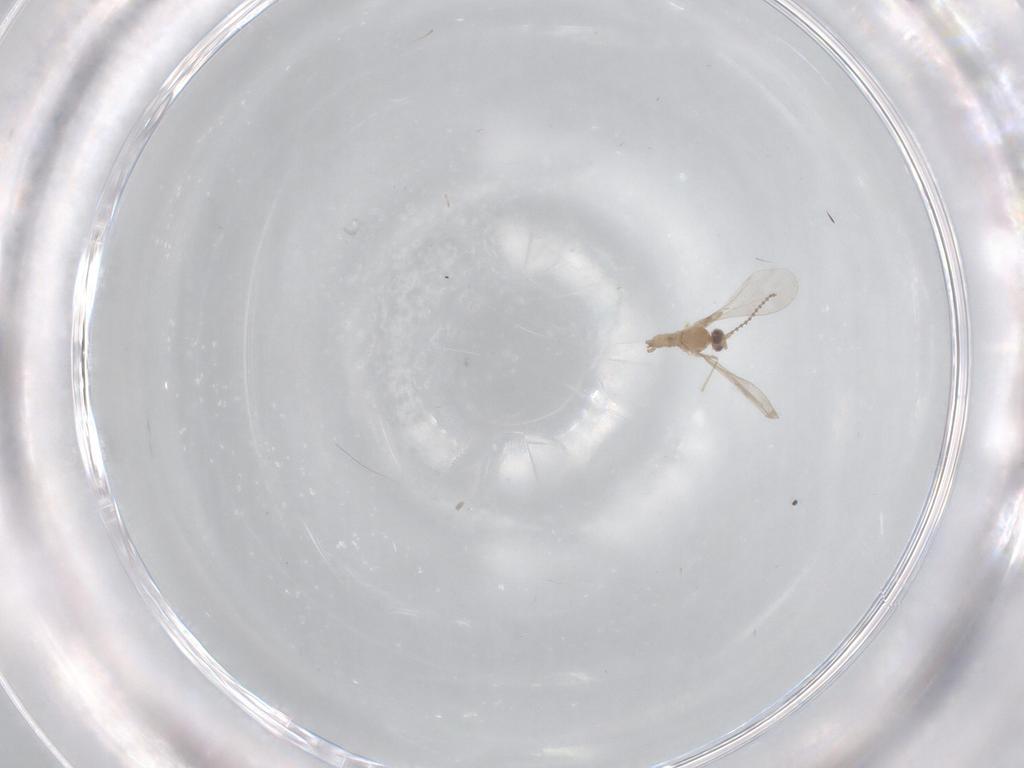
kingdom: Animalia
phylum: Arthropoda
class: Insecta
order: Diptera
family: Cecidomyiidae
